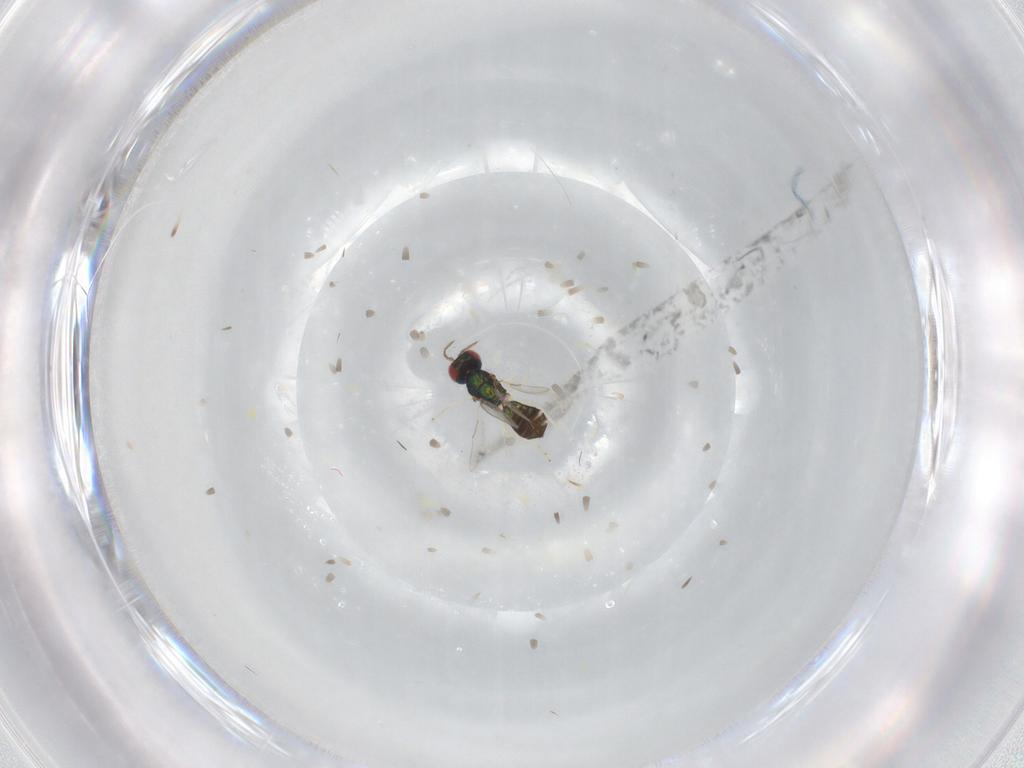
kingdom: Animalia
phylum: Arthropoda
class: Insecta
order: Hymenoptera
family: Eulophidae
